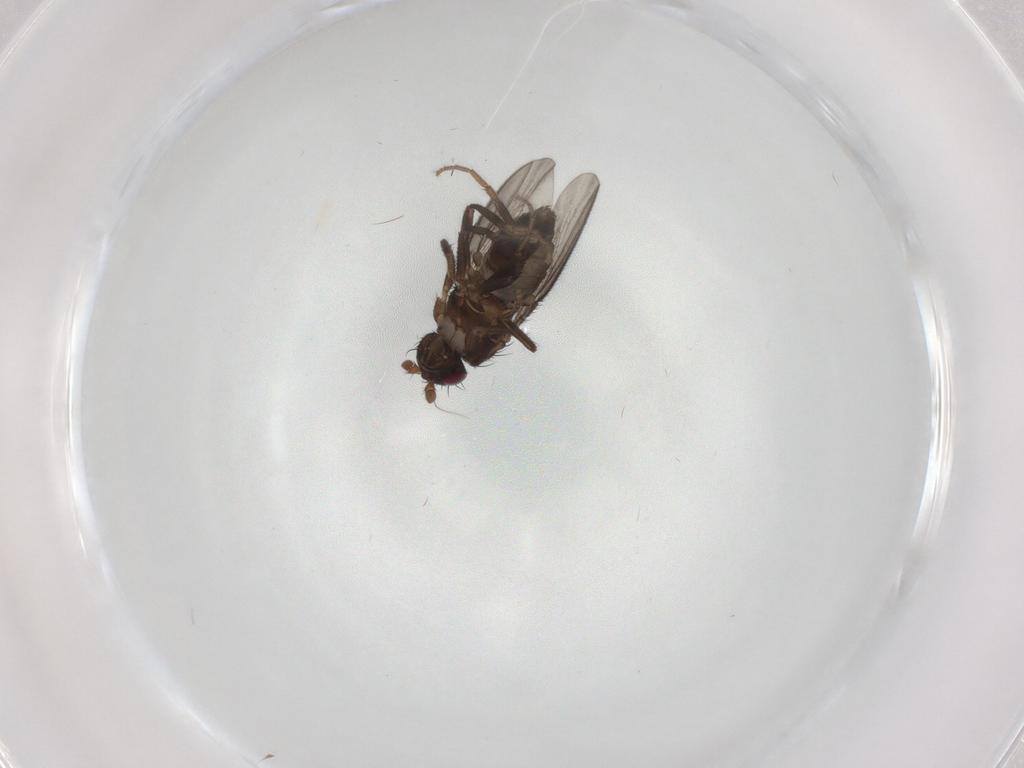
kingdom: Animalia
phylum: Arthropoda
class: Insecta
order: Diptera
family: Sphaeroceridae
